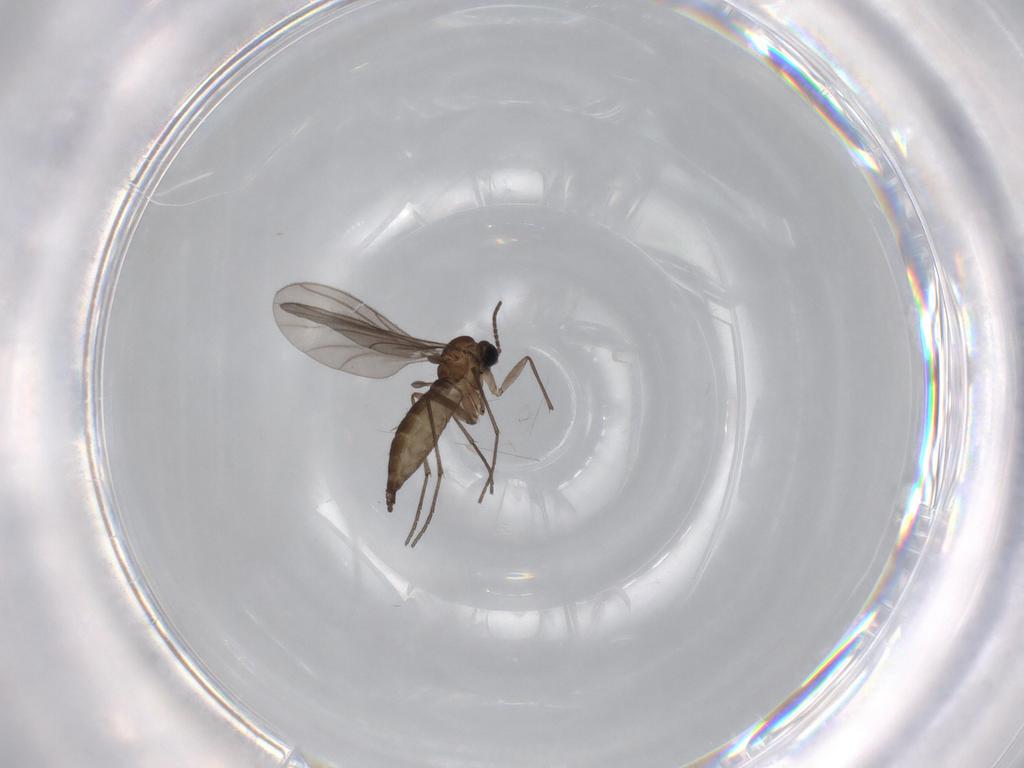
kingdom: Animalia
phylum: Arthropoda
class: Insecta
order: Diptera
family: Sciaridae
